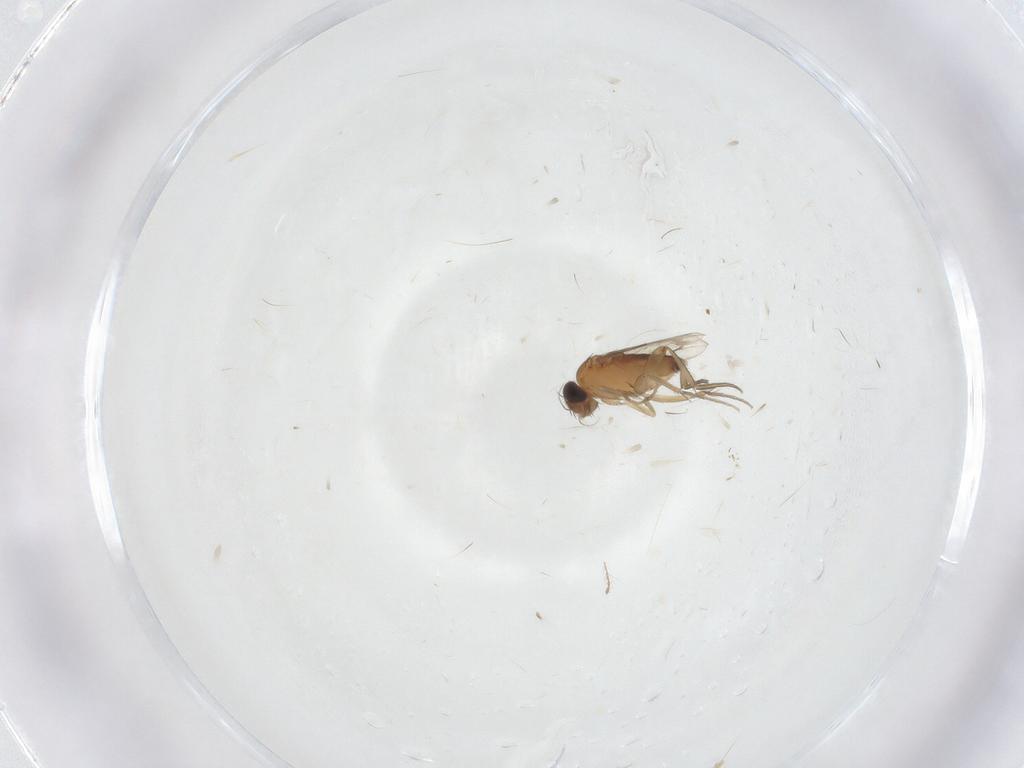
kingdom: Animalia
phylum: Arthropoda
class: Insecta
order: Diptera
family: Phoridae
